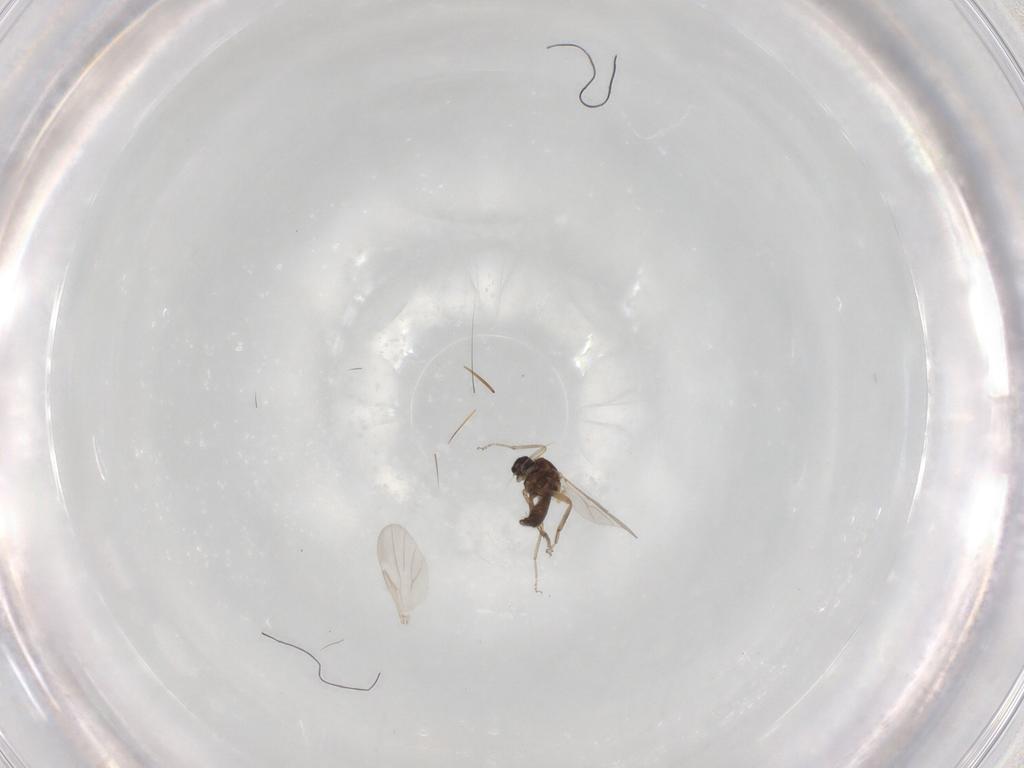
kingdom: Animalia
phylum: Arthropoda
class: Insecta
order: Diptera
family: Ceratopogonidae
